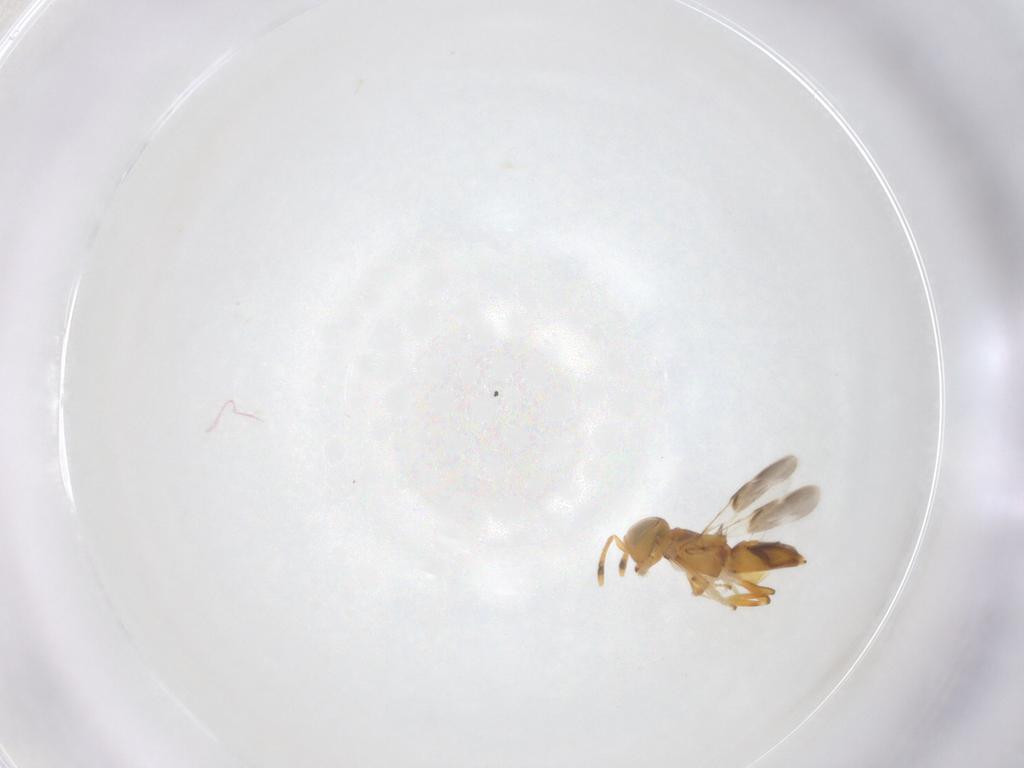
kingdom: Animalia
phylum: Arthropoda
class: Insecta
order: Hymenoptera
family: Encyrtidae
